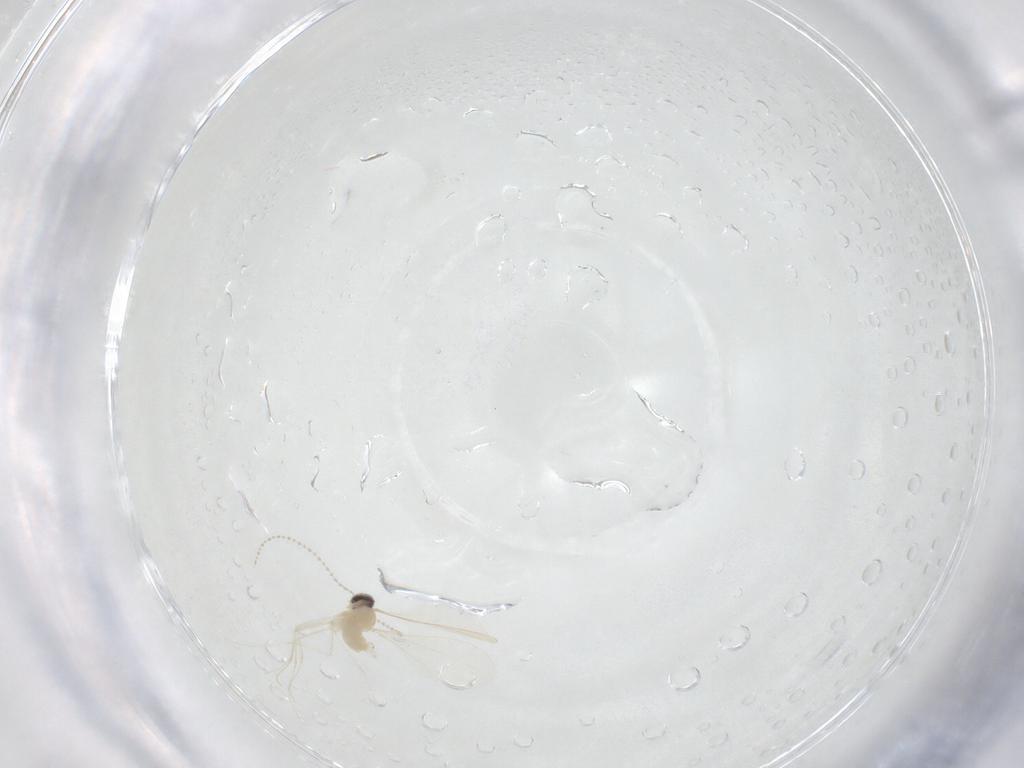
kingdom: Animalia
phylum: Arthropoda
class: Insecta
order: Diptera
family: Cecidomyiidae
